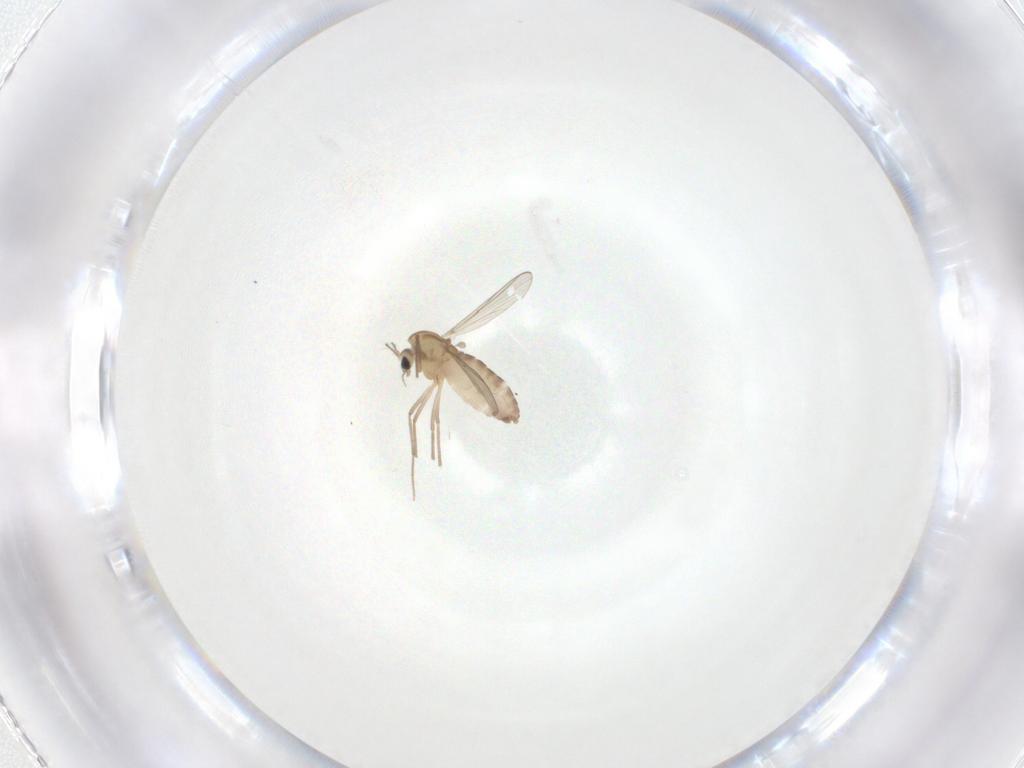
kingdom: Animalia
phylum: Arthropoda
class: Insecta
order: Diptera
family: Chironomidae
